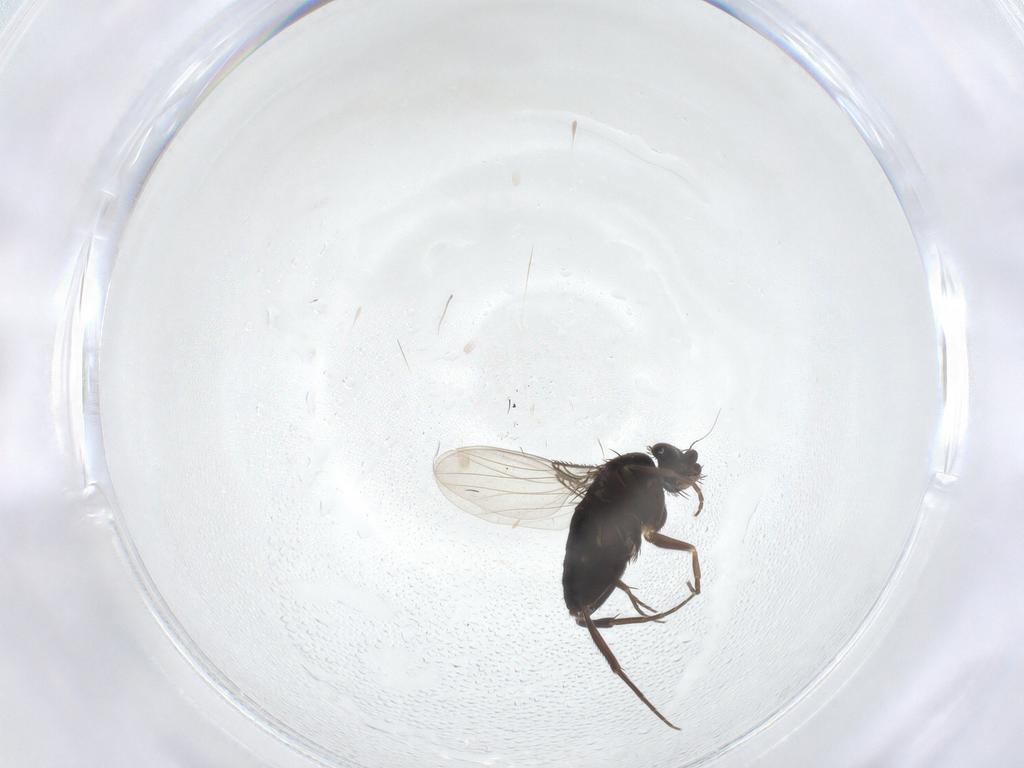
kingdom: Animalia
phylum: Arthropoda
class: Insecta
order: Diptera
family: Phoridae
